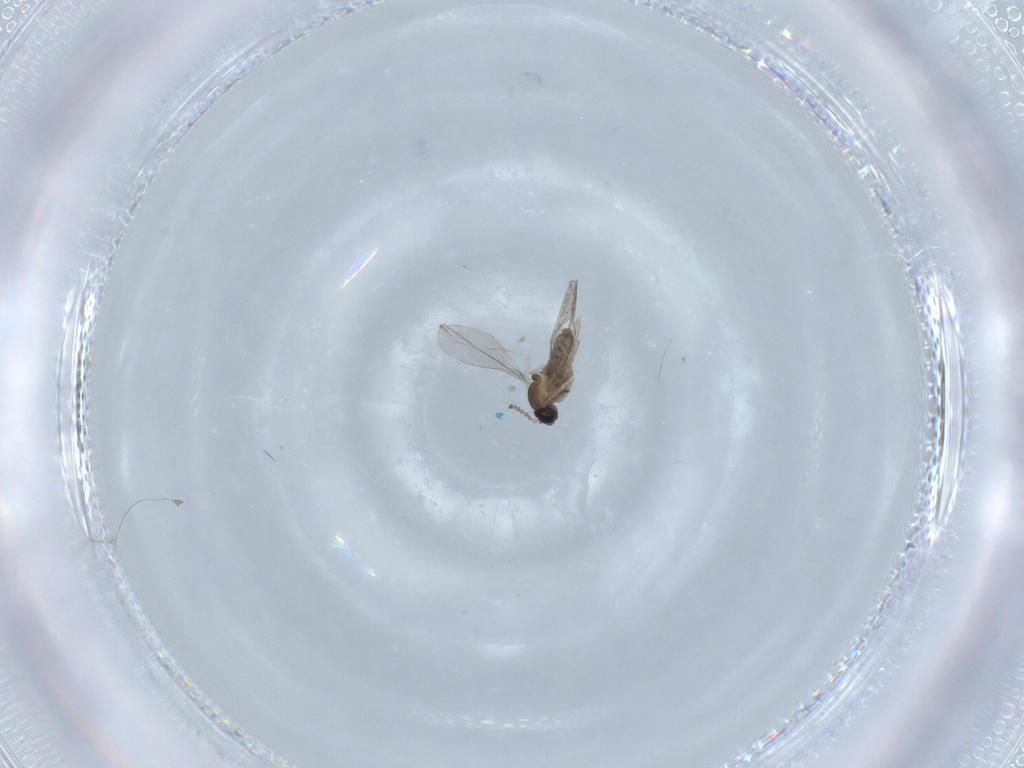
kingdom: Animalia
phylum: Arthropoda
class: Insecta
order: Diptera
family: Cecidomyiidae
